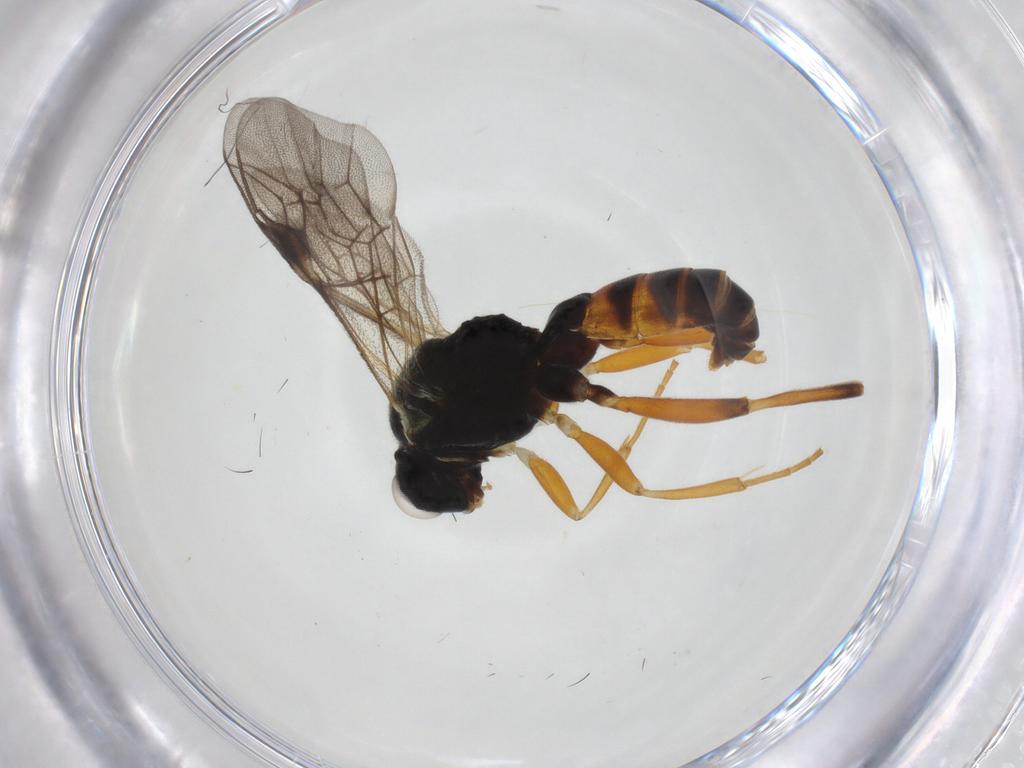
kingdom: Animalia
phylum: Arthropoda
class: Insecta
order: Hymenoptera
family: Ichneumonidae
